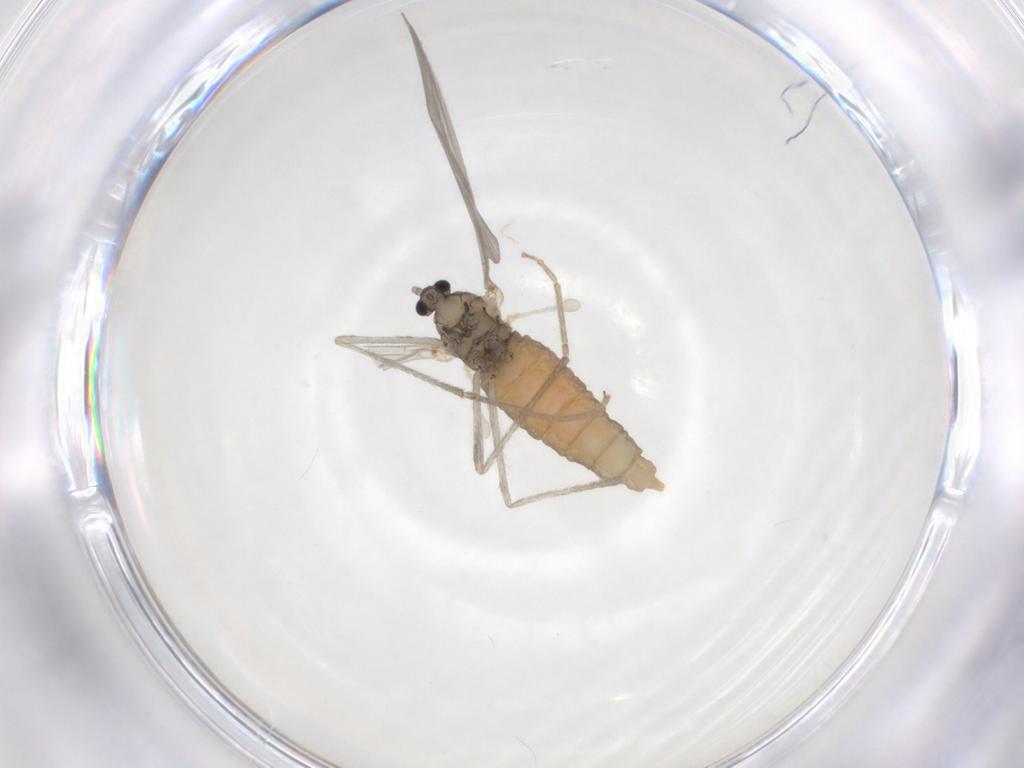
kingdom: Animalia
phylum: Arthropoda
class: Insecta
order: Diptera
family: Cecidomyiidae
